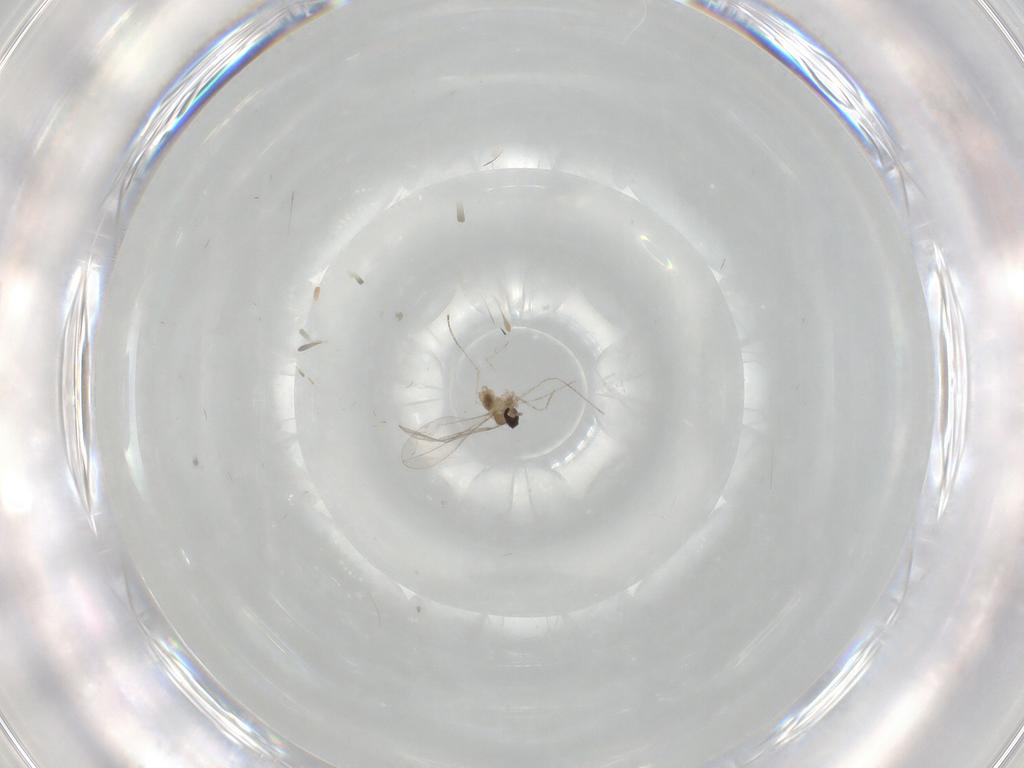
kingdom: Animalia
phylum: Arthropoda
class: Insecta
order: Diptera
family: Cecidomyiidae
